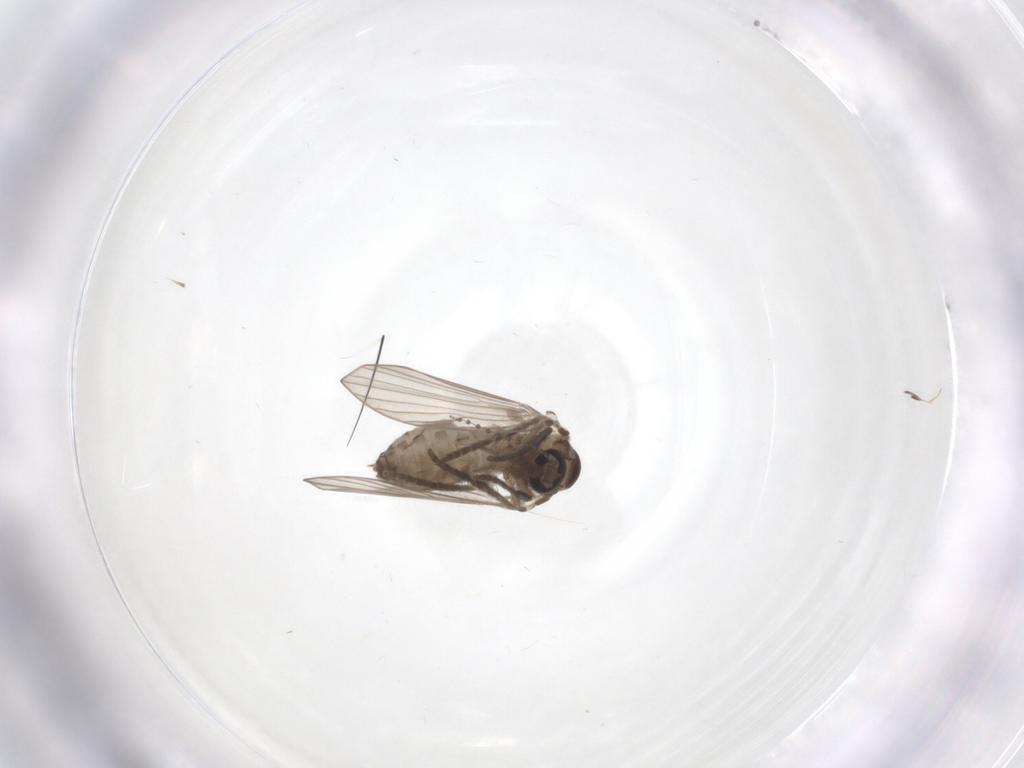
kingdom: Animalia
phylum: Arthropoda
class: Insecta
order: Diptera
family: Psychodidae
